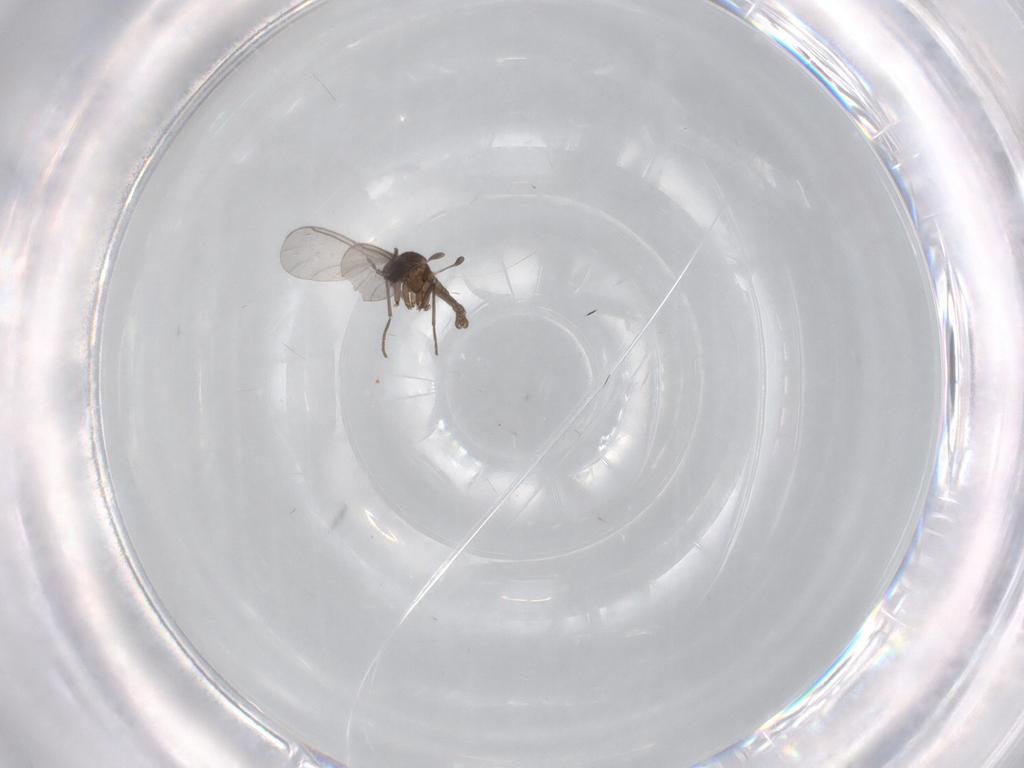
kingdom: Animalia
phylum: Arthropoda
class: Insecta
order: Diptera
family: Sciaridae
